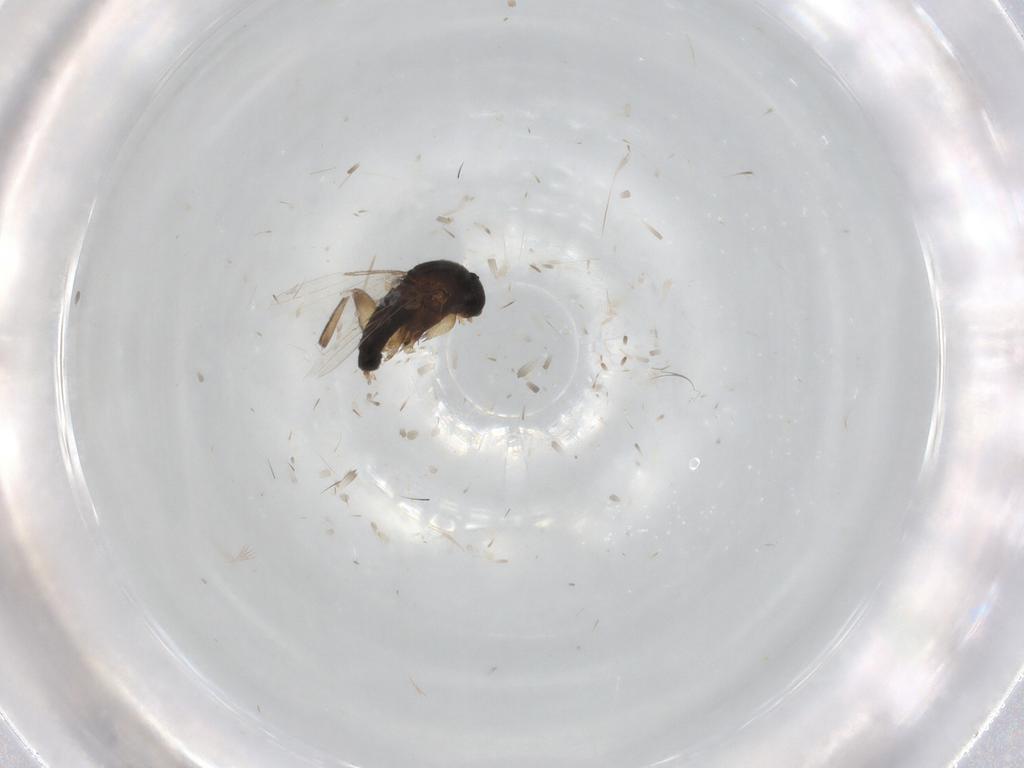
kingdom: Animalia
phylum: Arthropoda
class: Insecta
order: Diptera
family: Phoridae
